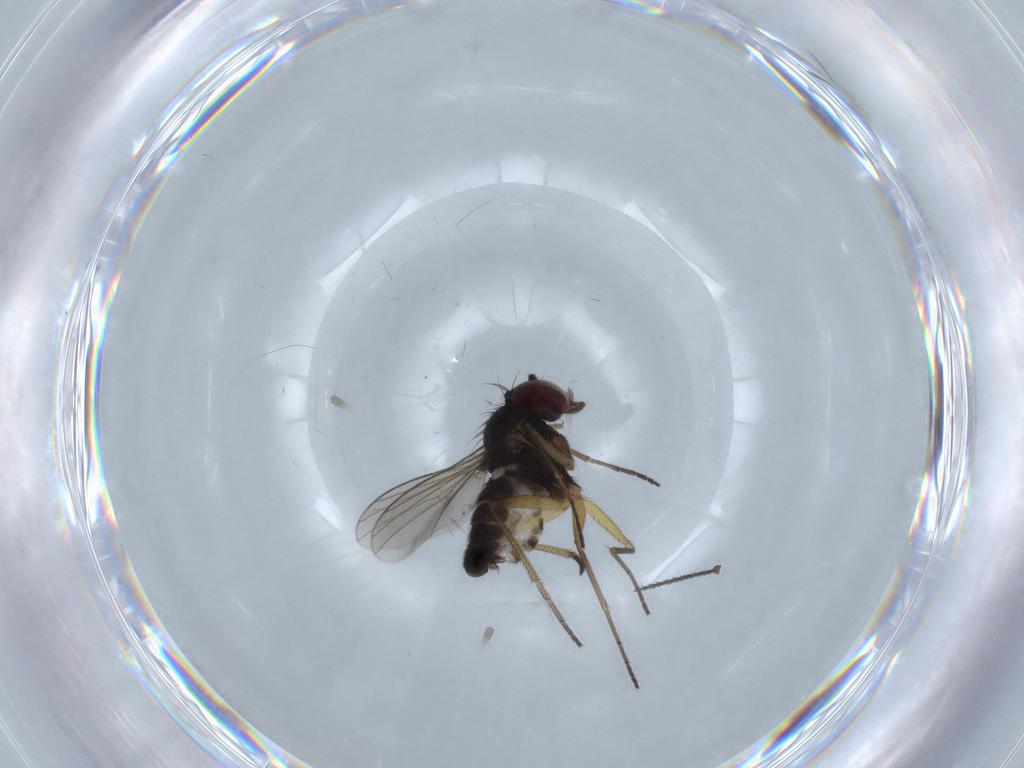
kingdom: Animalia
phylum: Arthropoda
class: Insecta
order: Diptera
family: Dolichopodidae
